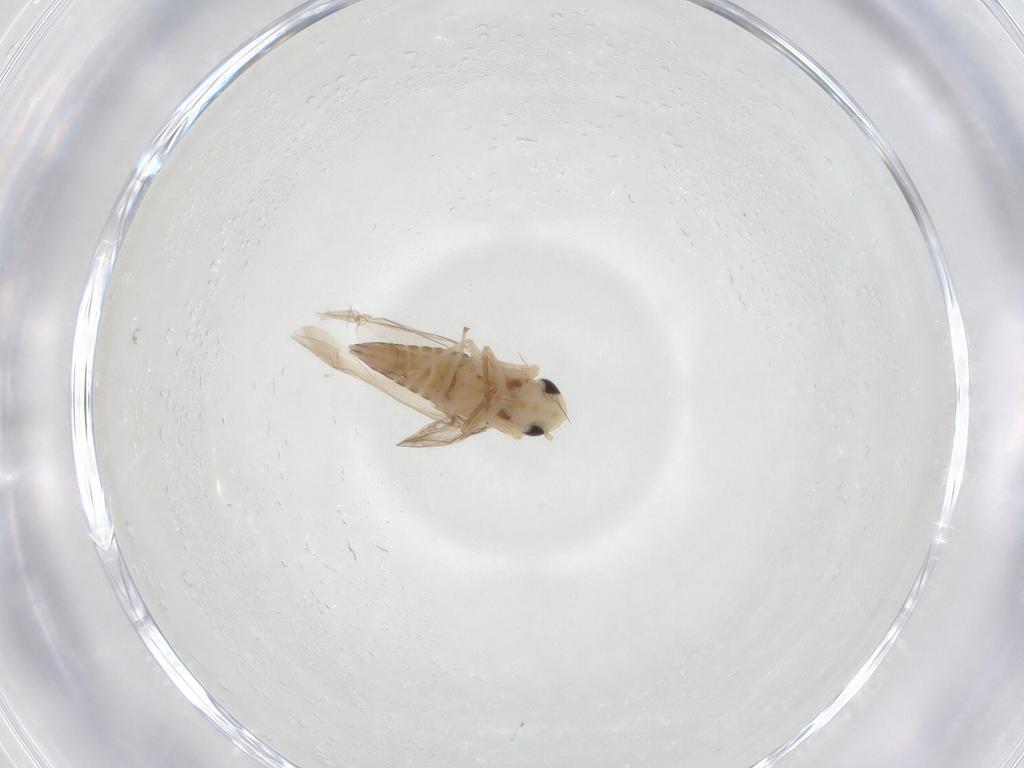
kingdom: Animalia
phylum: Arthropoda
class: Insecta
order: Hemiptera
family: Cicadellidae
